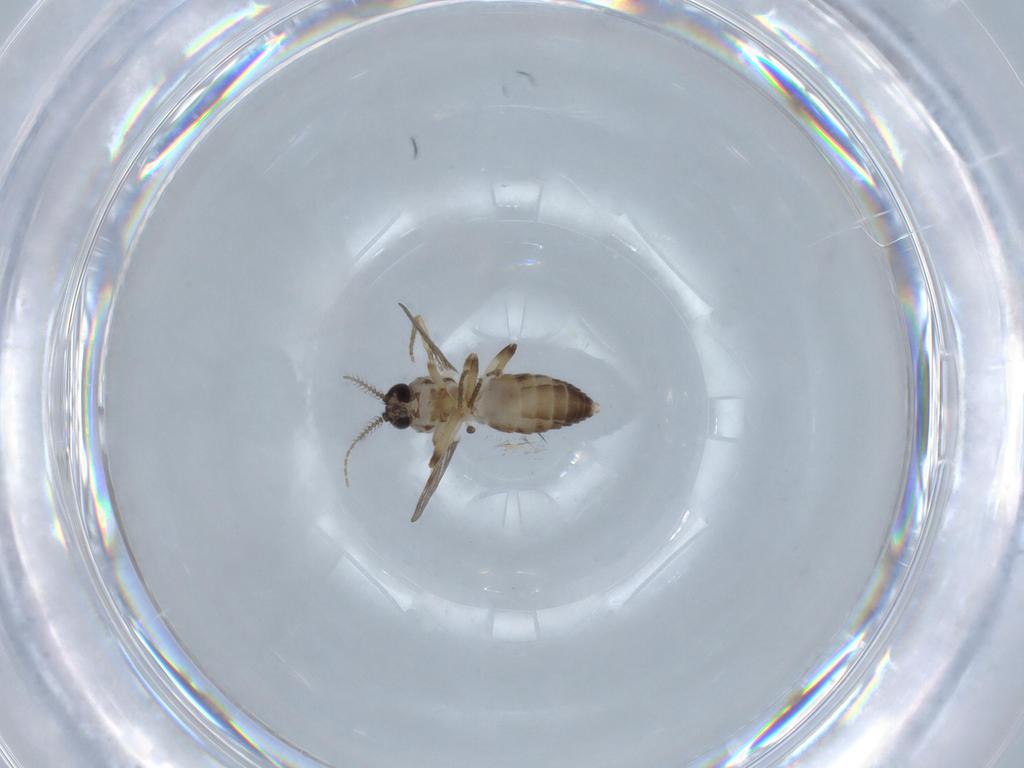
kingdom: Animalia
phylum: Arthropoda
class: Insecta
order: Diptera
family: Ceratopogonidae
